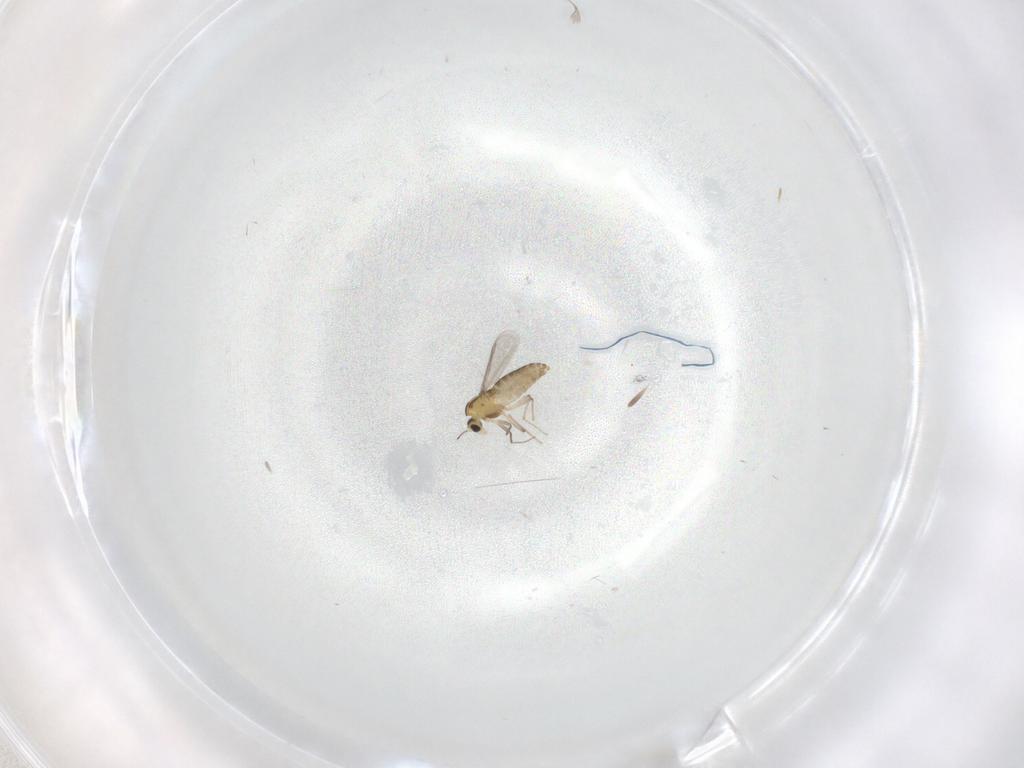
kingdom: Animalia
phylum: Arthropoda
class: Insecta
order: Diptera
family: Chironomidae
